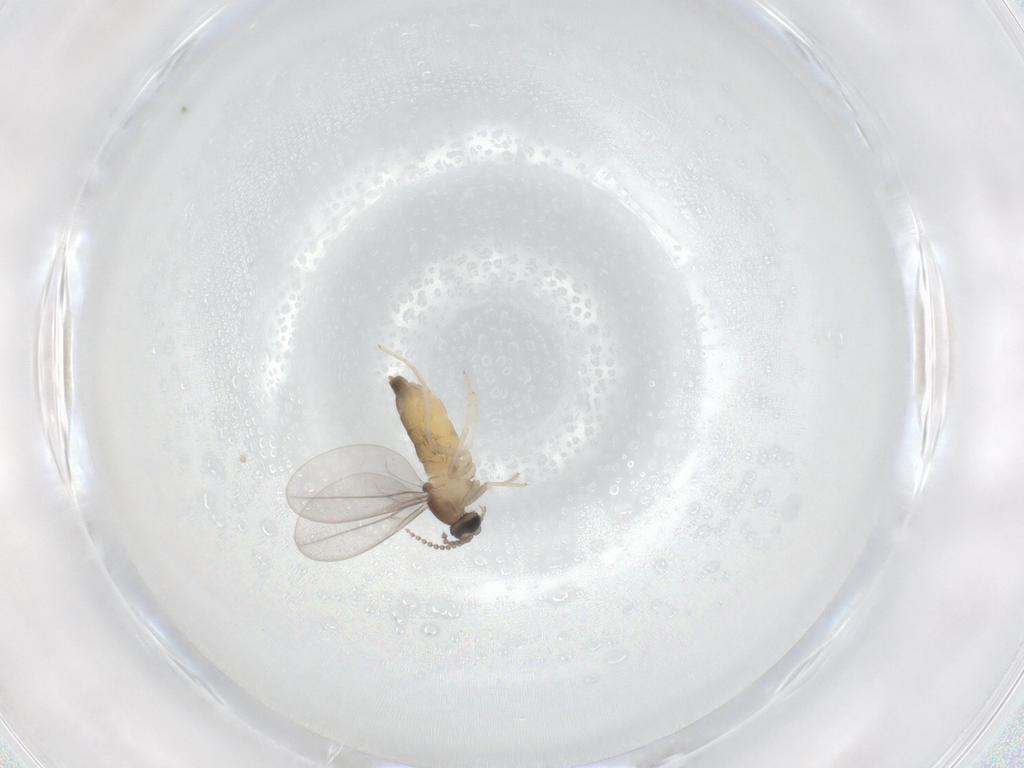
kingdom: Animalia
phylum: Arthropoda
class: Insecta
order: Diptera
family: Cecidomyiidae
